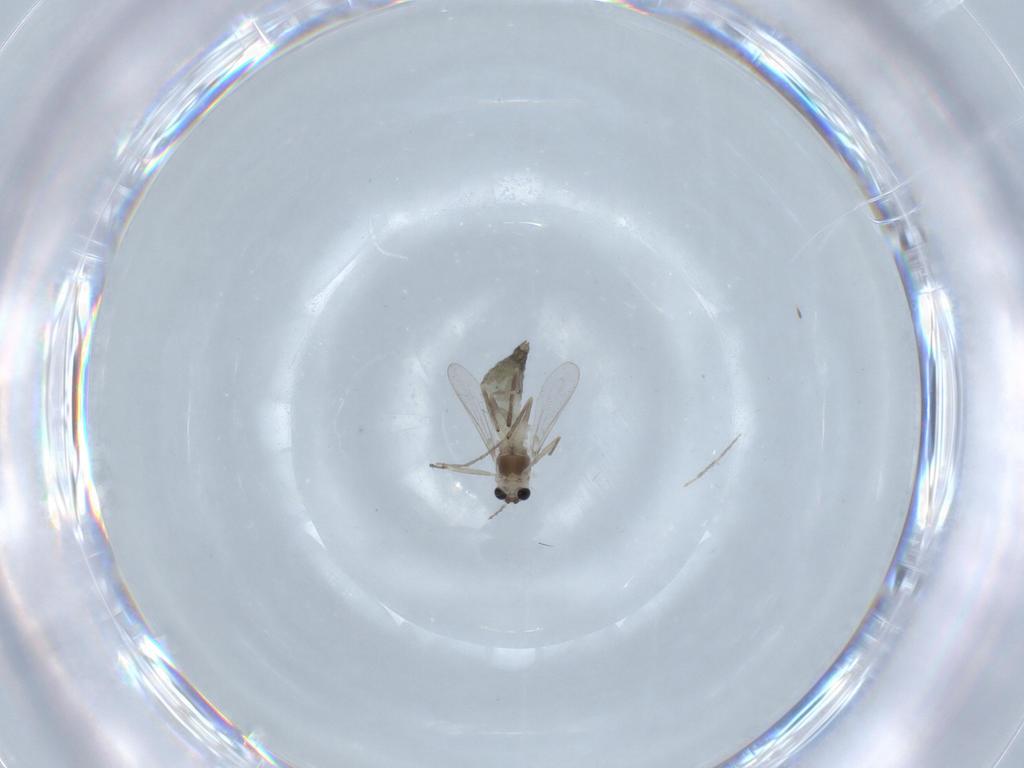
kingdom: Animalia
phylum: Arthropoda
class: Insecta
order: Diptera
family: Chironomidae
